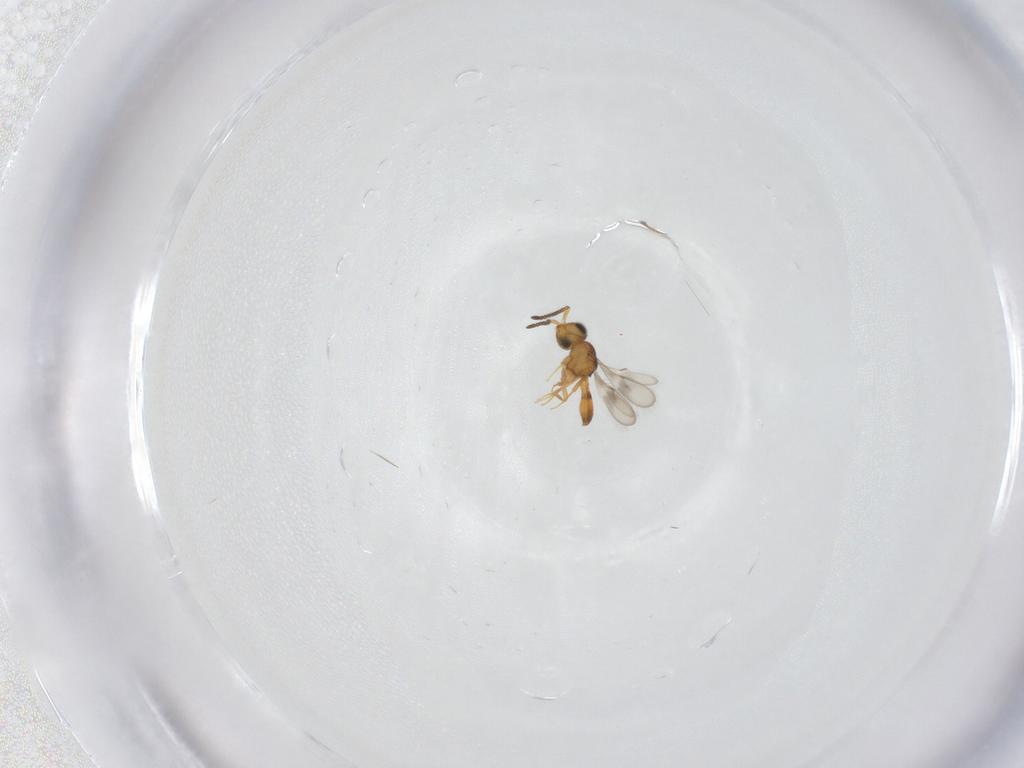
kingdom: Animalia
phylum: Arthropoda
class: Insecta
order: Hymenoptera
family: Scelionidae
